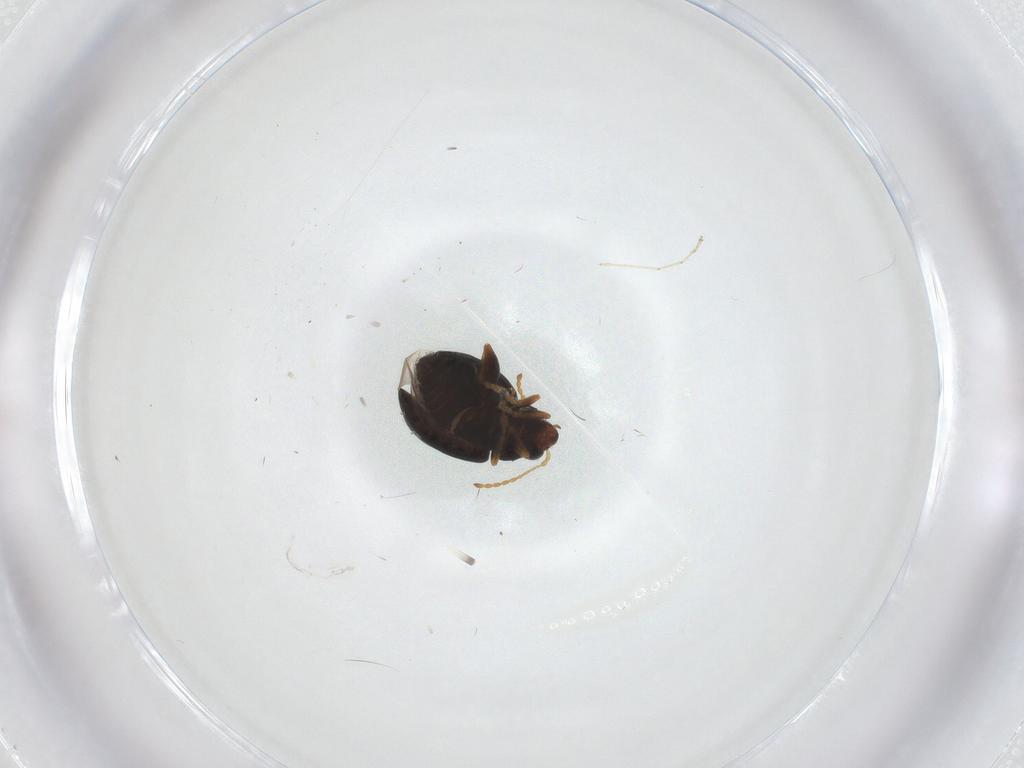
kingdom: Animalia
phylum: Arthropoda
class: Insecta
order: Coleoptera
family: Chrysomelidae
